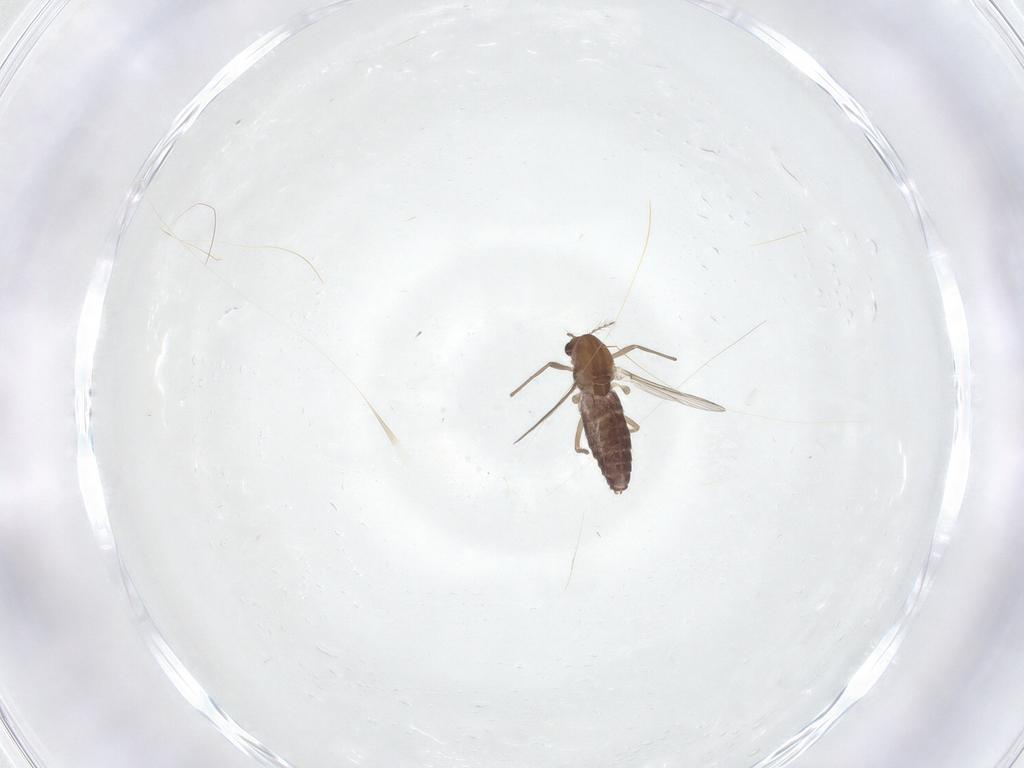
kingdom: Animalia
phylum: Arthropoda
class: Insecta
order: Diptera
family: Chironomidae
